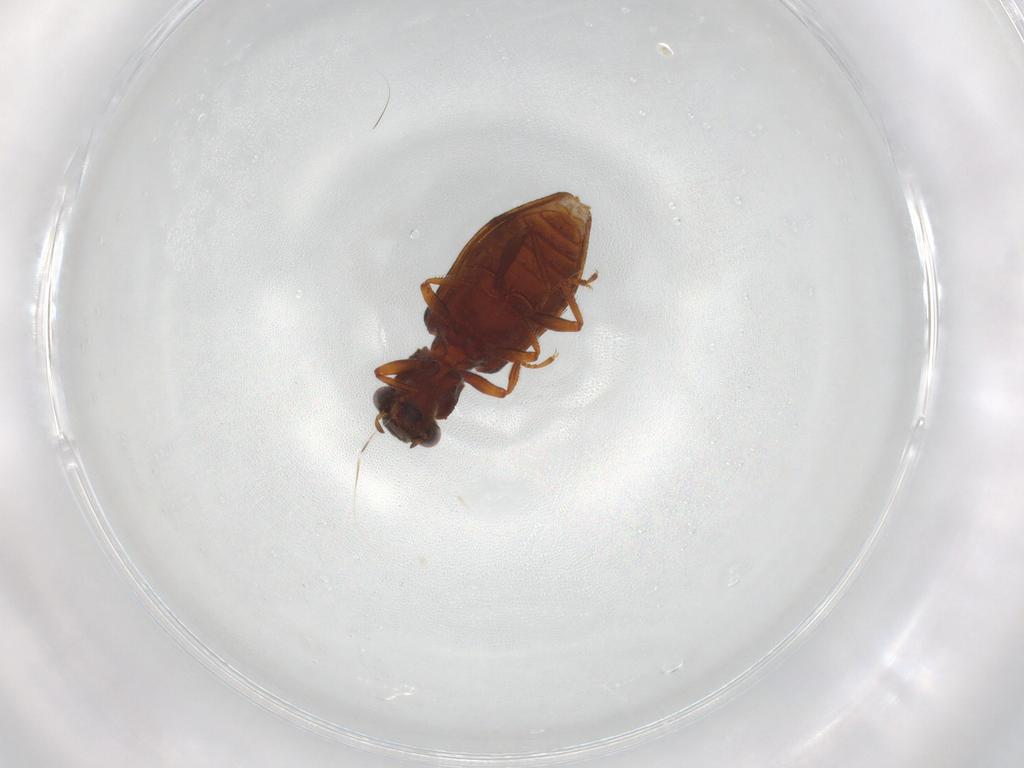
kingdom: Animalia
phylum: Arthropoda
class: Insecta
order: Coleoptera
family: Hydrophilidae
